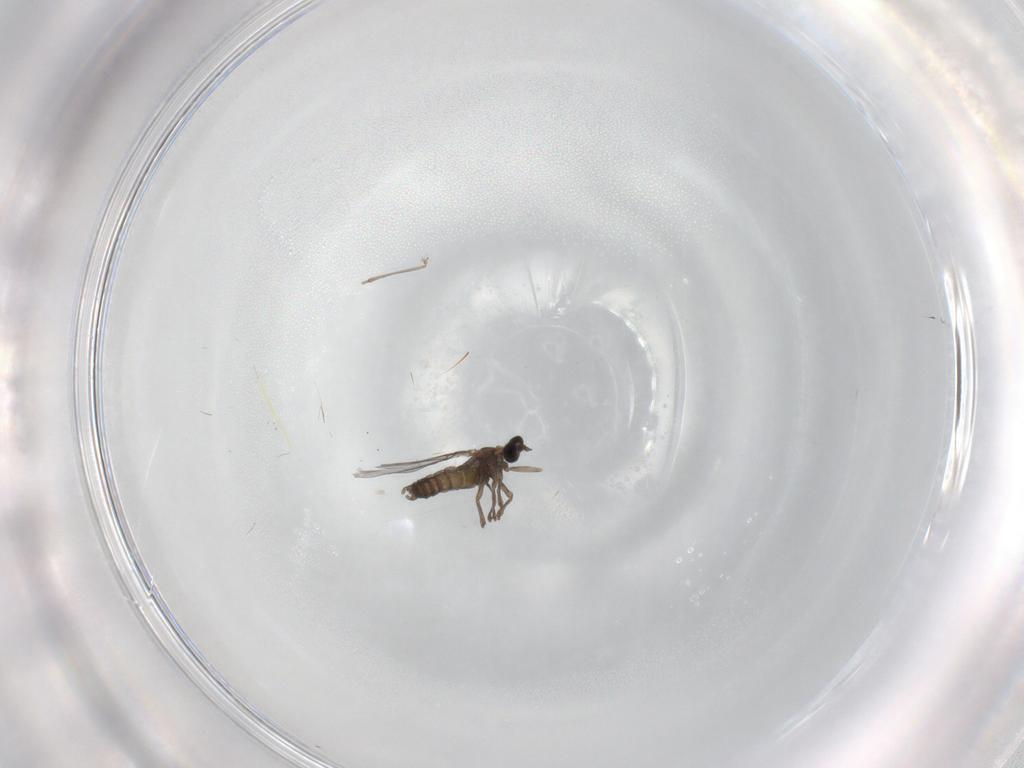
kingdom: Animalia
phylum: Arthropoda
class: Insecta
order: Diptera
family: Cecidomyiidae
